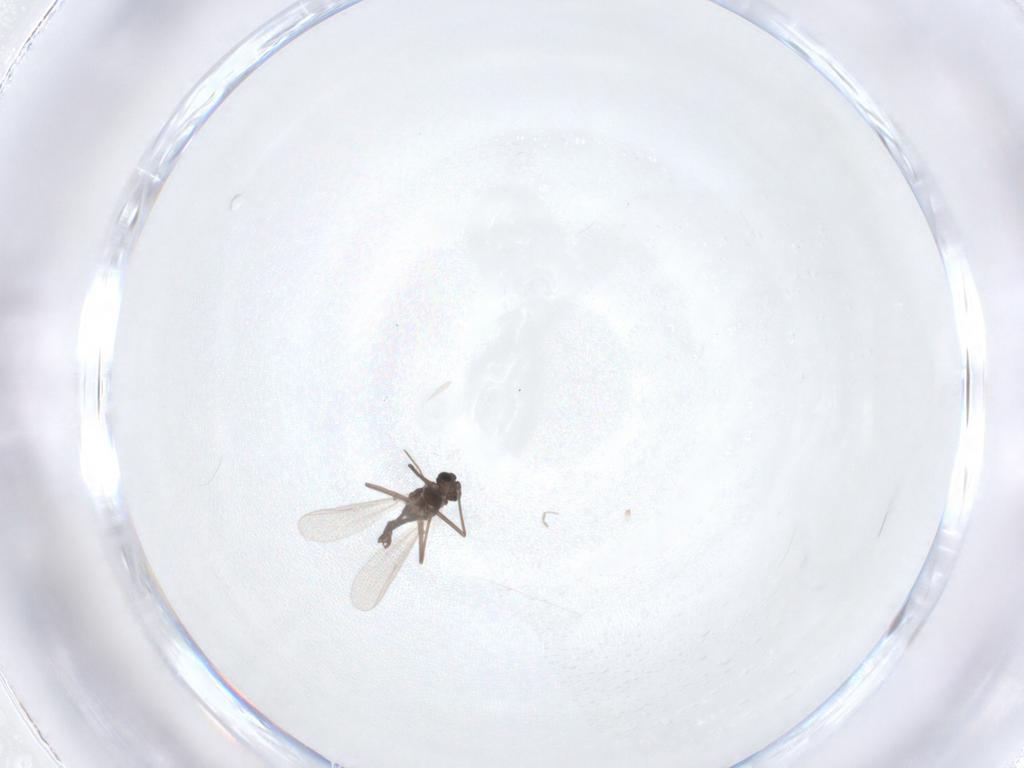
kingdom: Animalia
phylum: Arthropoda
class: Insecta
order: Diptera
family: Chironomidae
